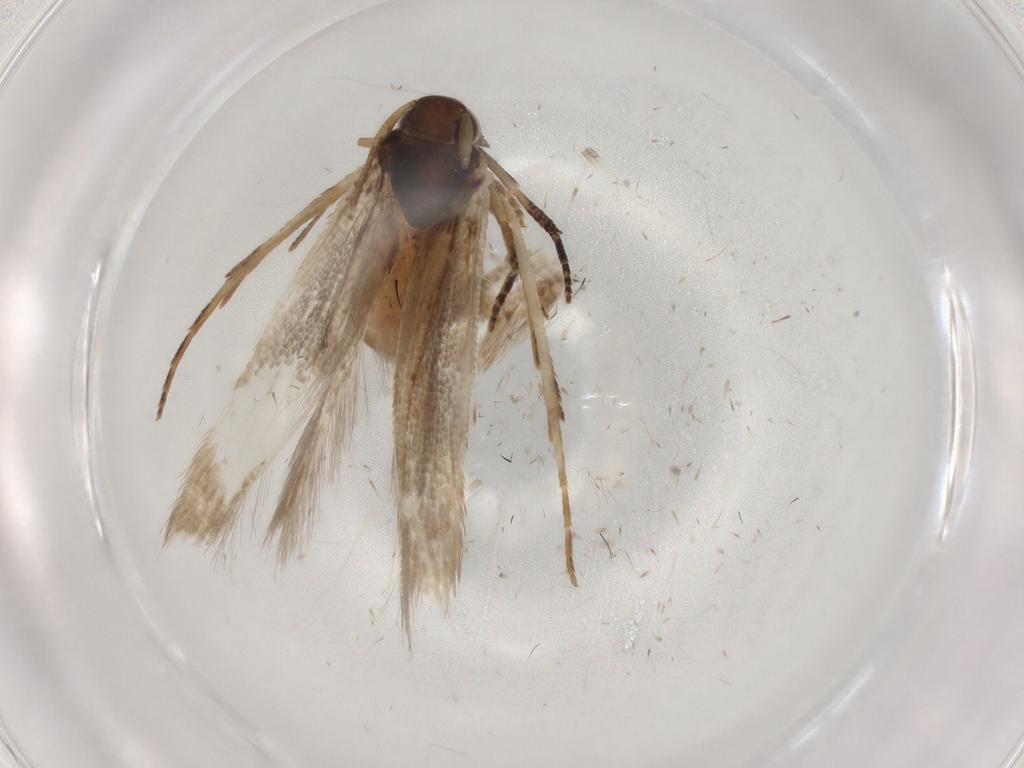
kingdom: Animalia
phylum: Arthropoda
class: Insecta
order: Lepidoptera
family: Cosmopterigidae
